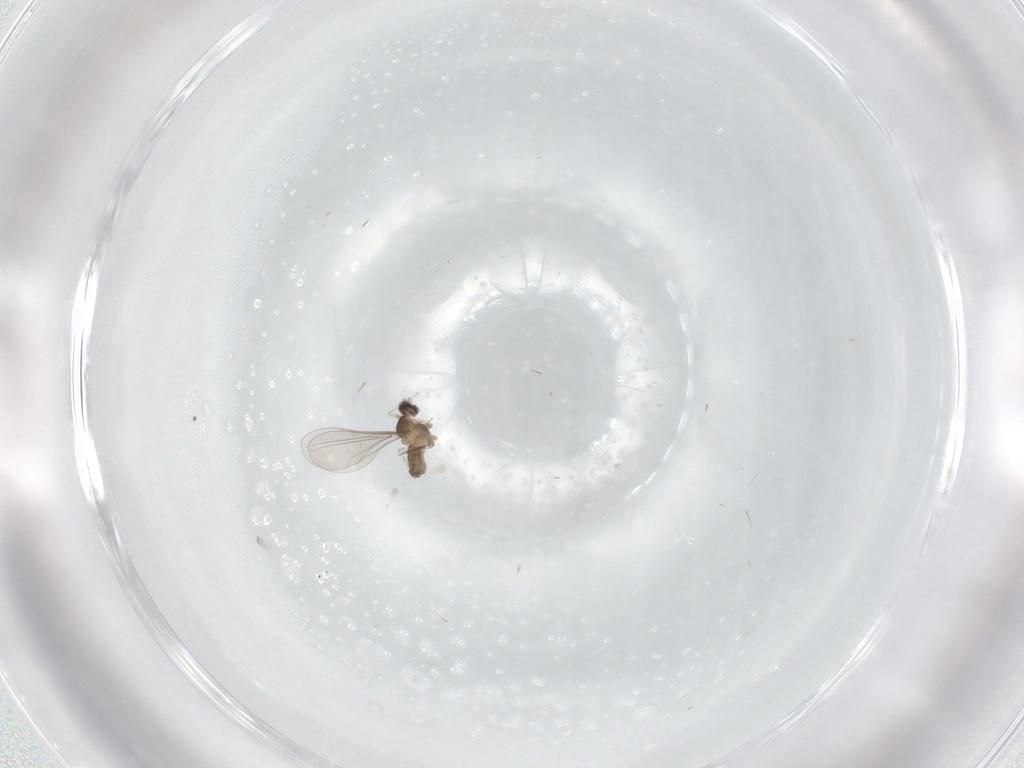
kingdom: Animalia
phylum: Arthropoda
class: Insecta
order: Diptera
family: Cecidomyiidae
